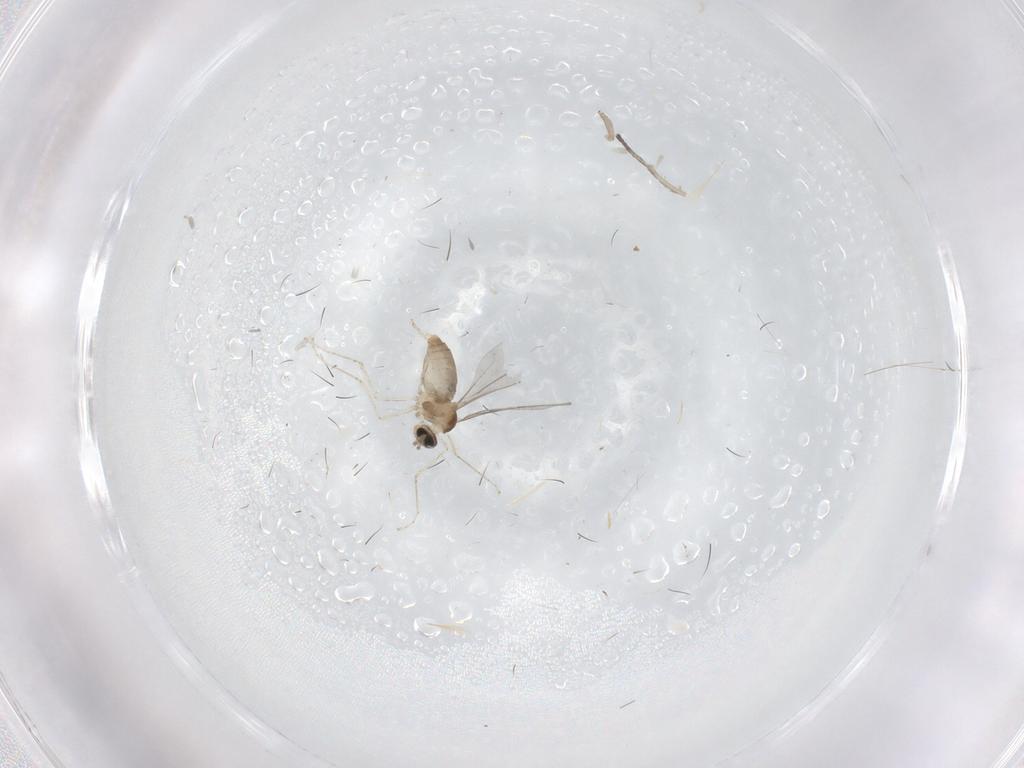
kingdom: Animalia
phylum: Arthropoda
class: Insecta
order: Diptera
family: Cecidomyiidae
